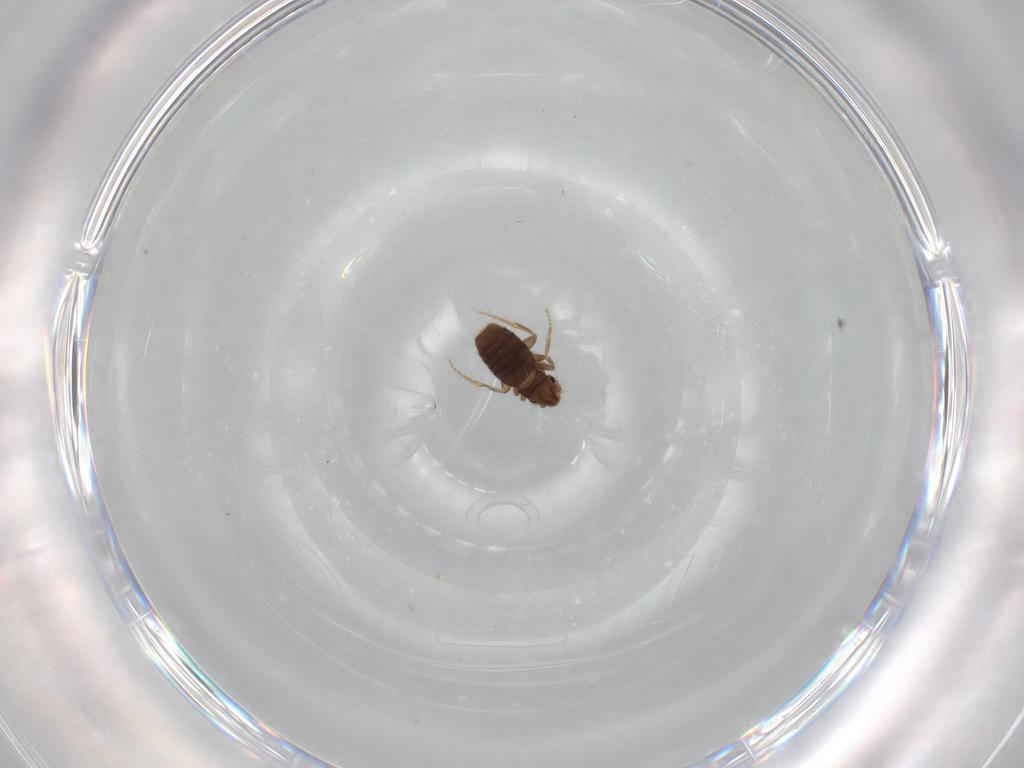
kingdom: Animalia
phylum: Arthropoda
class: Insecta
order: Diptera
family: Phoridae
